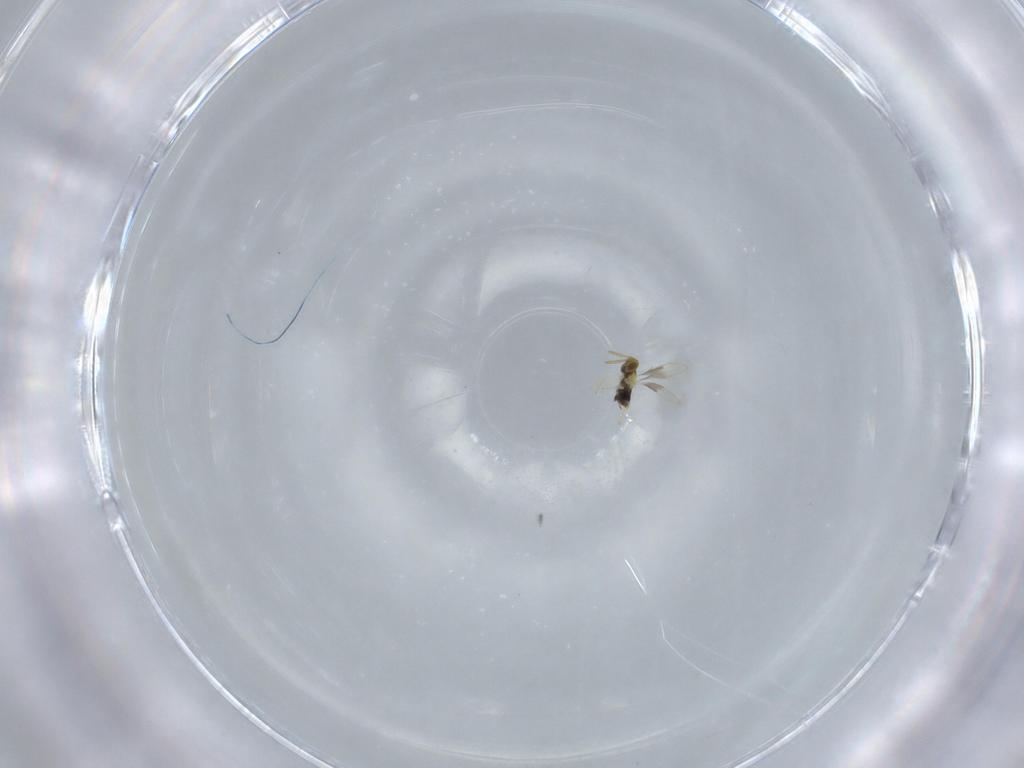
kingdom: Animalia
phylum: Arthropoda
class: Insecta
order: Hymenoptera
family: Aphelinidae
